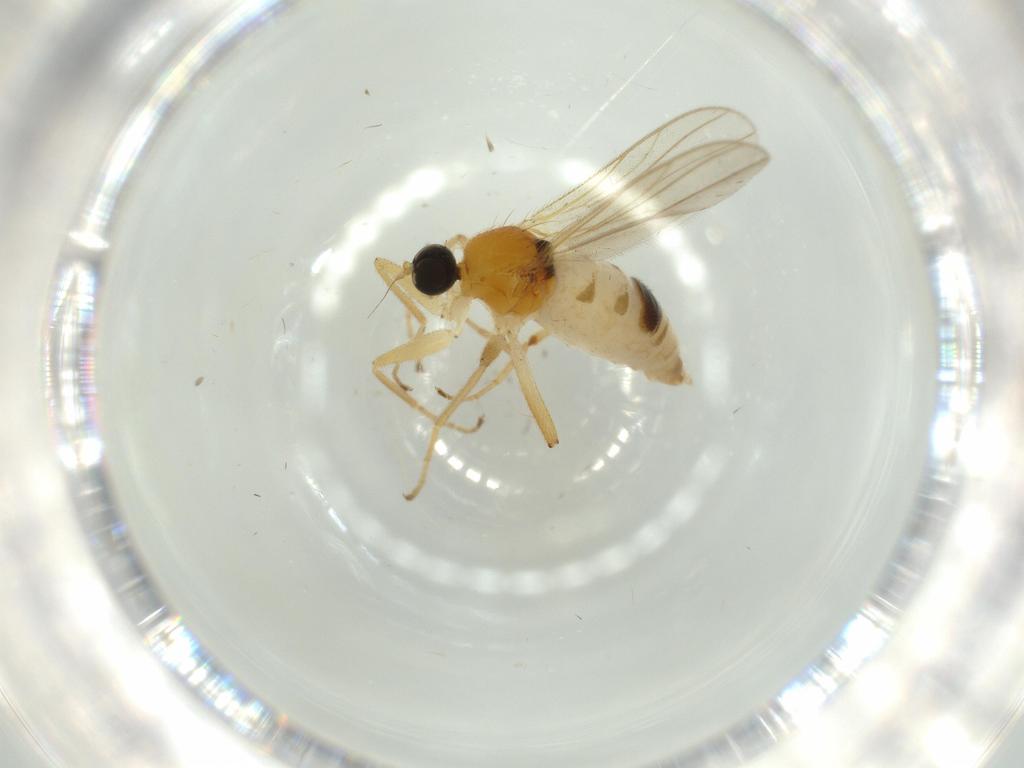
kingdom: Animalia
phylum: Arthropoda
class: Insecta
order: Diptera
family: Hybotidae
